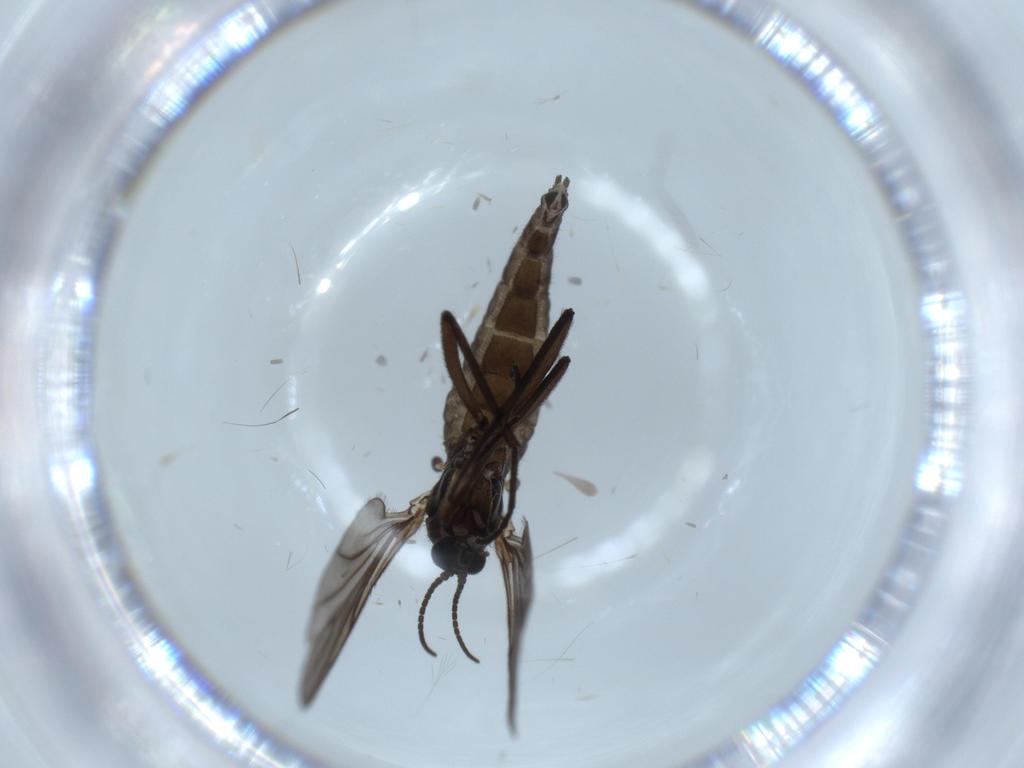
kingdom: Animalia
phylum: Arthropoda
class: Insecta
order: Diptera
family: Sciaridae
